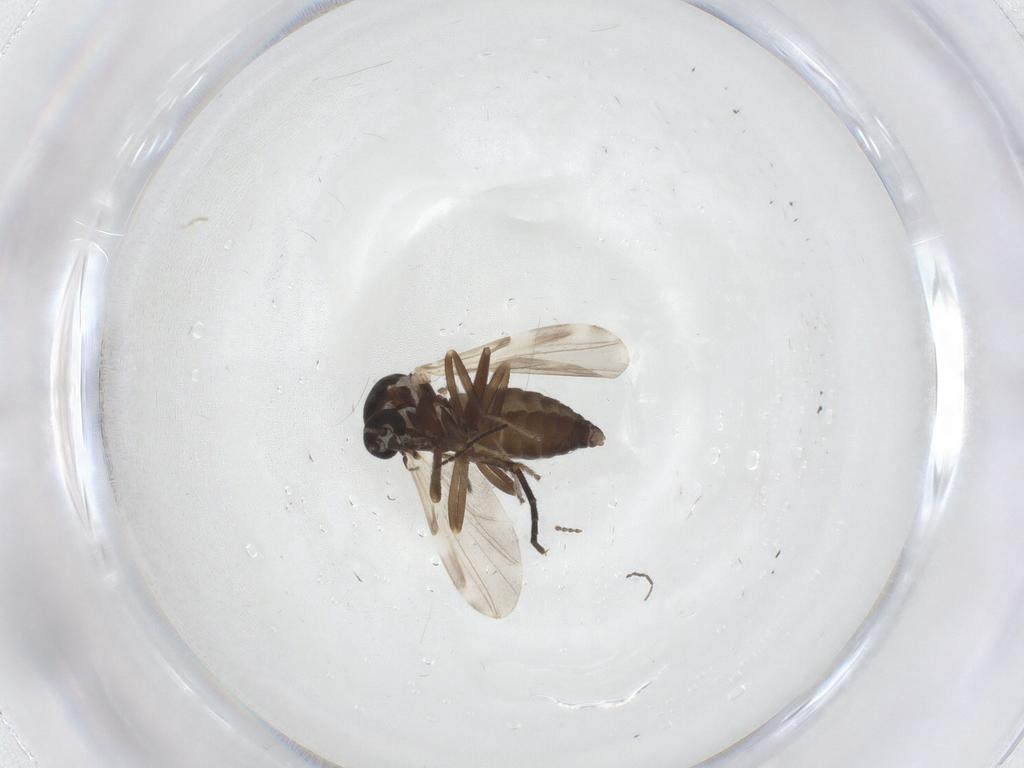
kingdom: Animalia
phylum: Arthropoda
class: Insecta
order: Diptera
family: Ceratopogonidae
